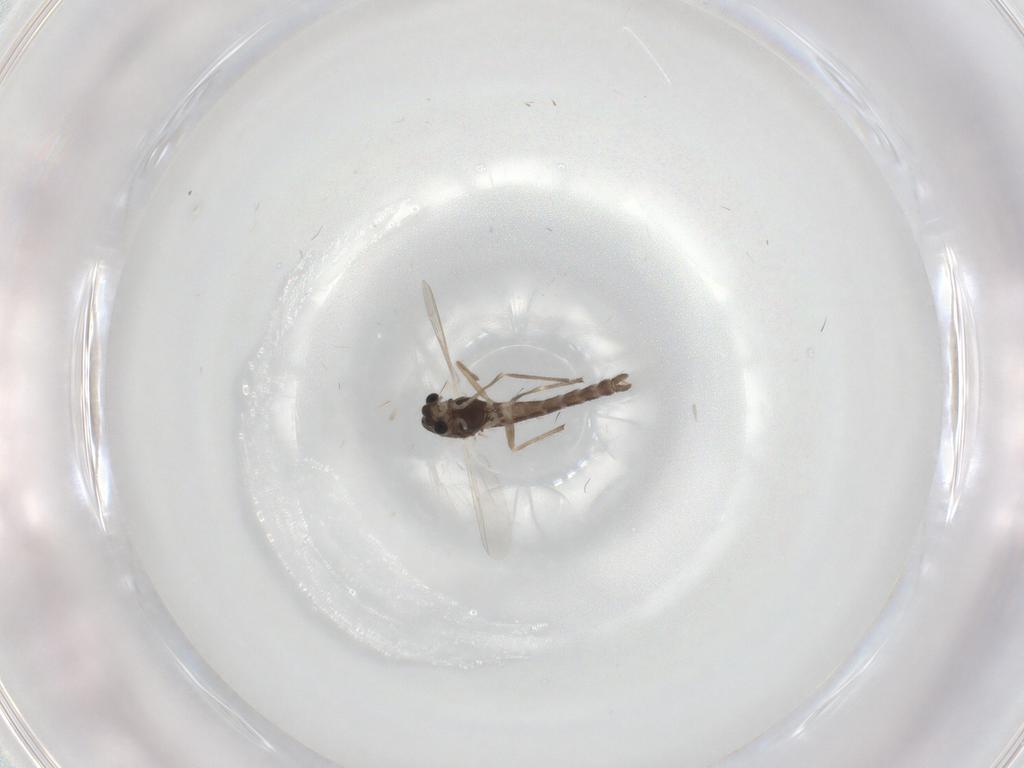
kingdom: Animalia
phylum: Arthropoda
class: Insecta
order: Diptera
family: Chironomidae
